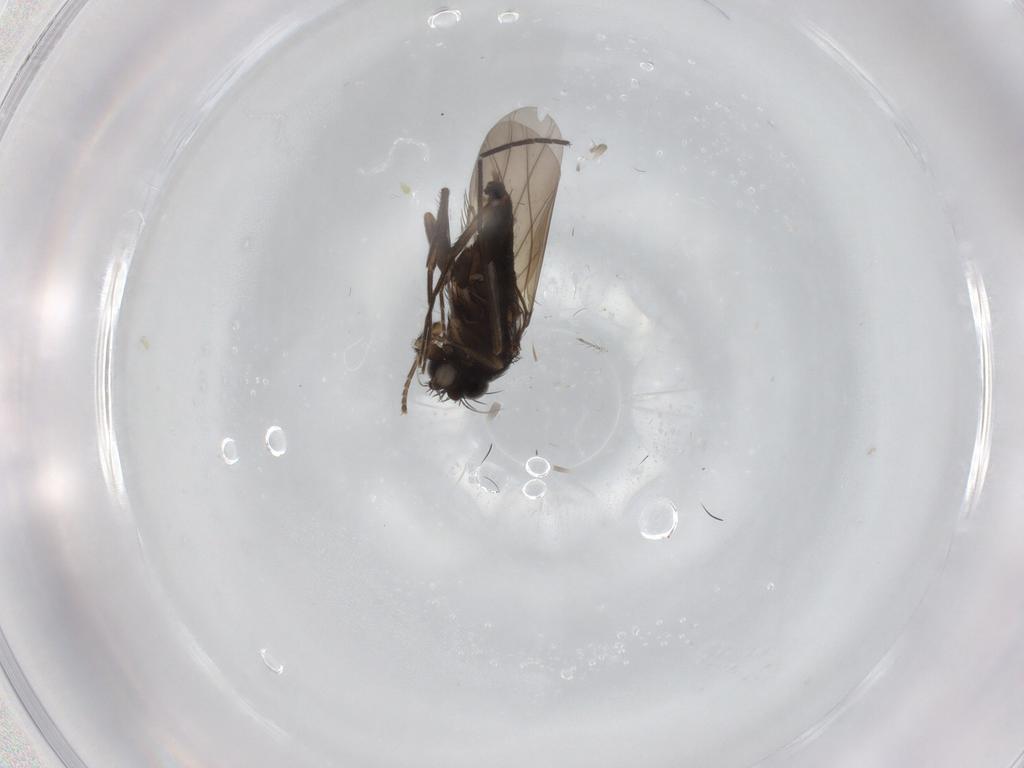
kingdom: Animalia
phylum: Arthropoda
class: Insecta
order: Diptera
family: Phoridae
